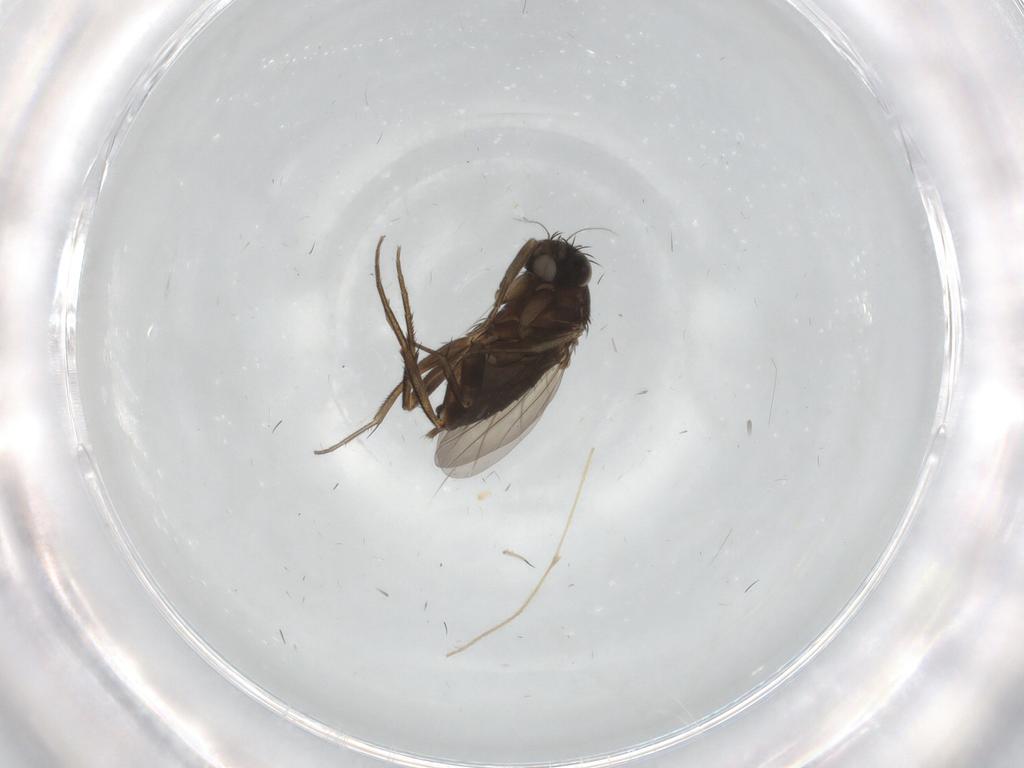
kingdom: Animalia
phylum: Arthropoda
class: Insecta
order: Diptera
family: Phoridae
